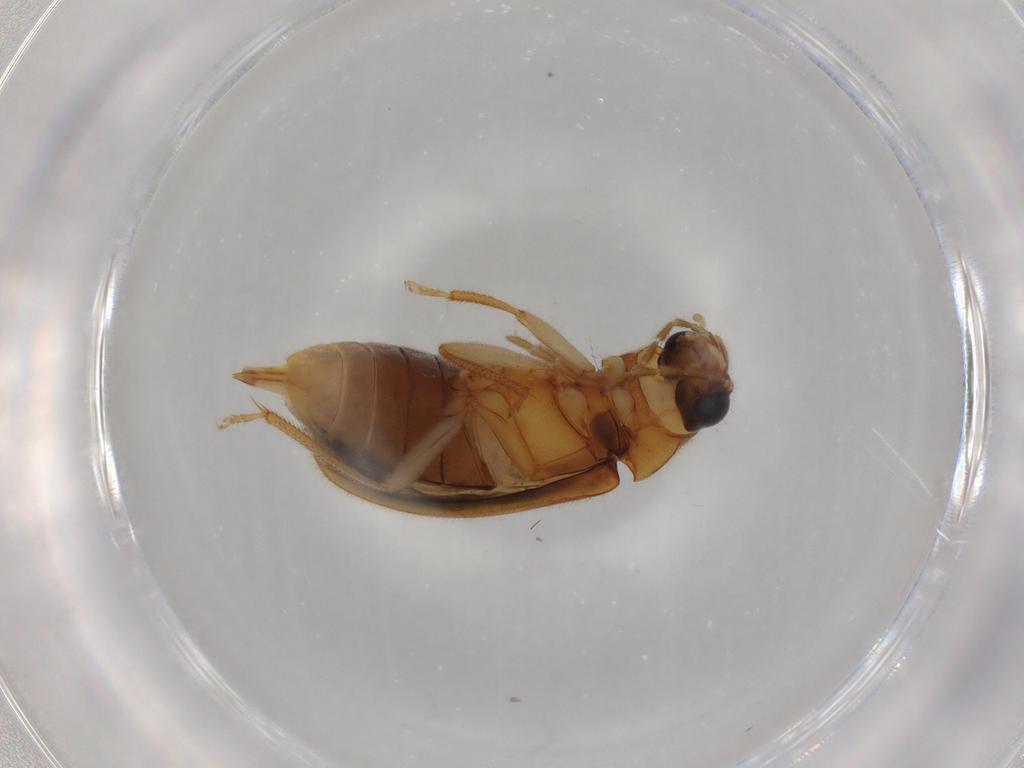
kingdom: Animalia
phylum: Arthropoda
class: Insecta
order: Coleoptera
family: Ptilodactylidae
